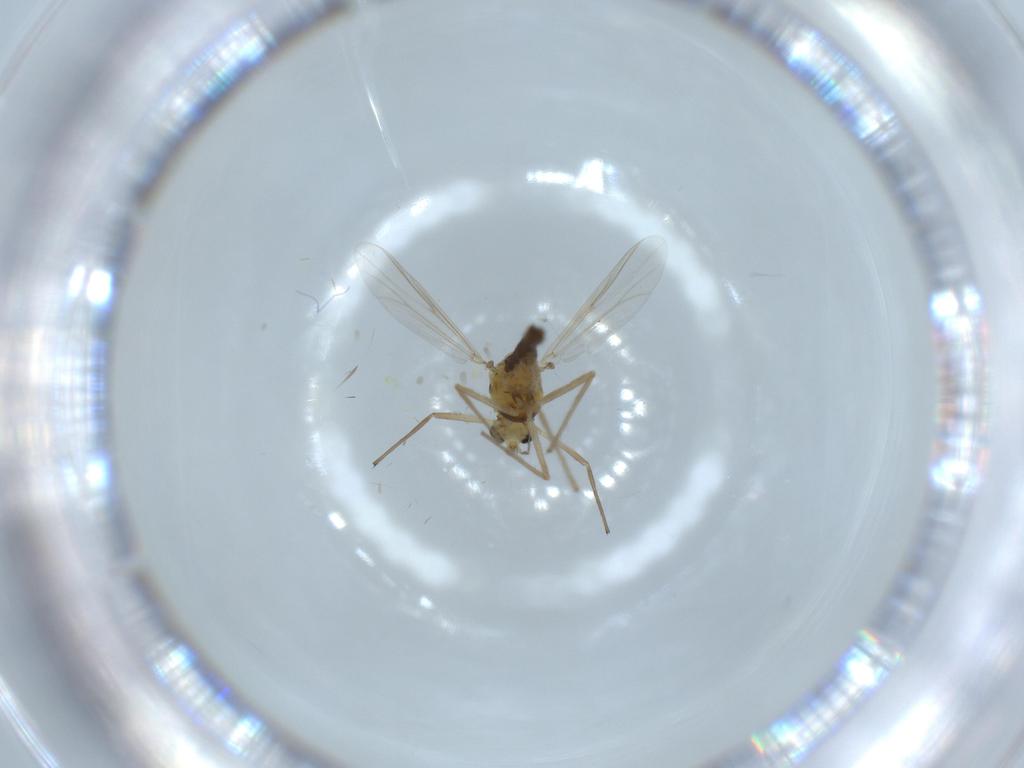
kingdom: Animalia
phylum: Arthropoda
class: Insecta
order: Diptera
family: Chironomidae
